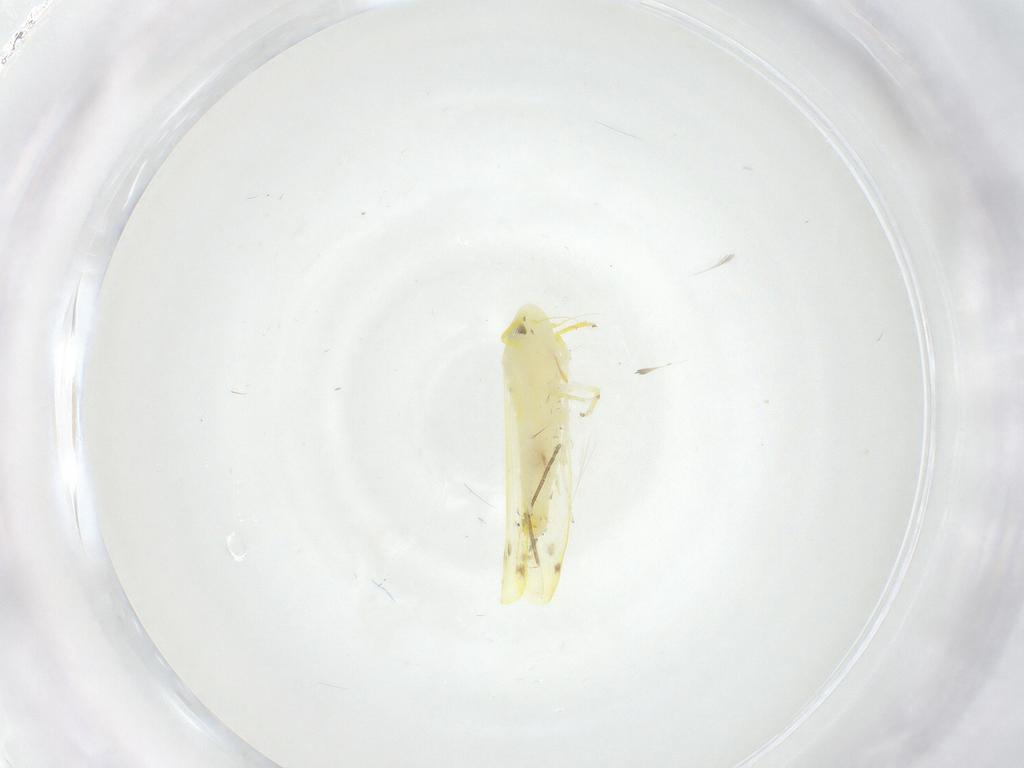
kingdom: Animalia
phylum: Arthropoda
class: Insecta
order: Hemiptera
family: Cicadellidae
